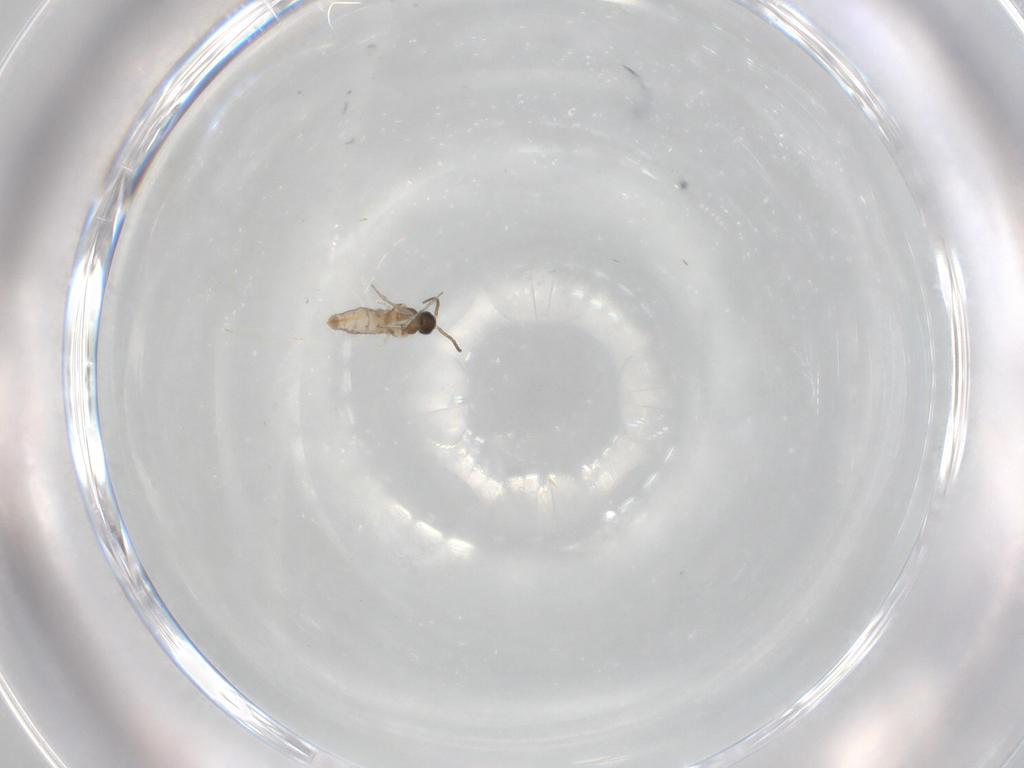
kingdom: Animalia
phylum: Arthropoda
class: Insecta
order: Diptera
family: Cecidomyiidae
